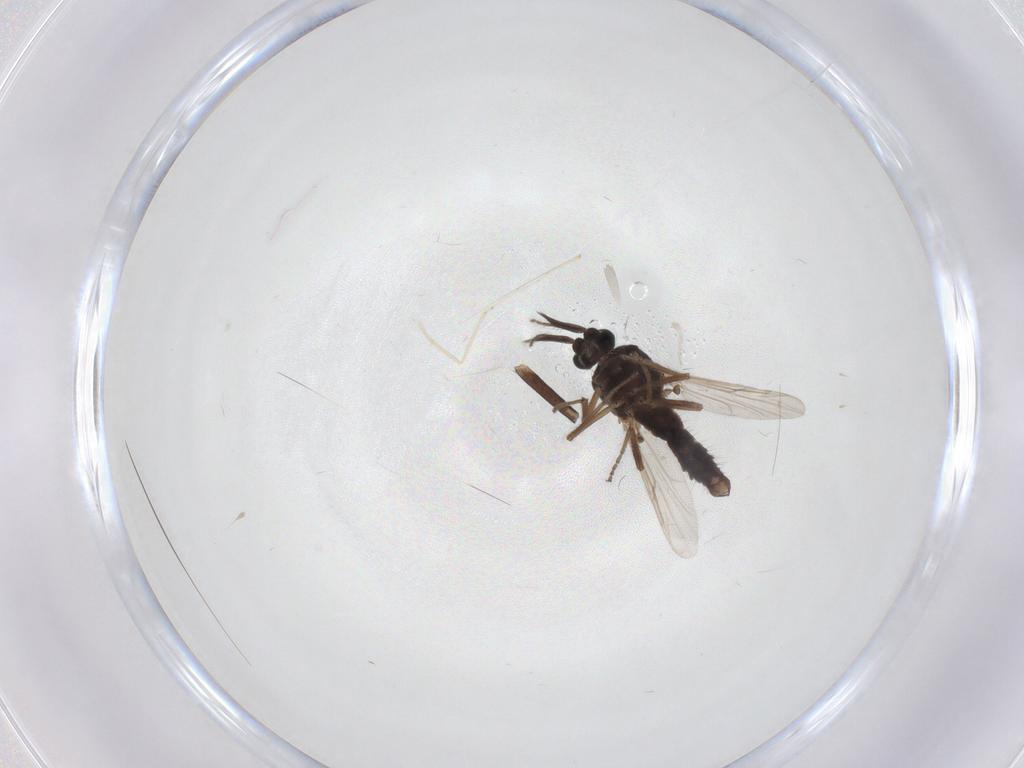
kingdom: Animalia
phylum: Arthropoda
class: Insecta
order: Diptera
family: Ceratopogonidae
